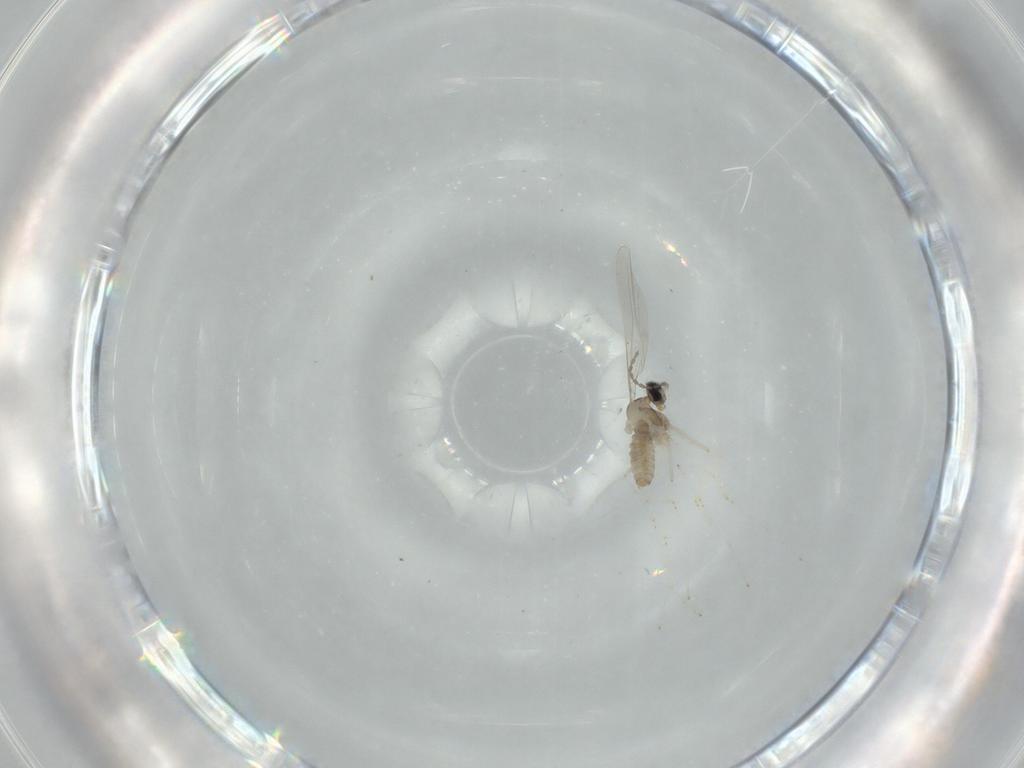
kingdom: Animalia
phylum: Arthropoda
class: Insecta
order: Diptera
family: Cecidomyiidae
